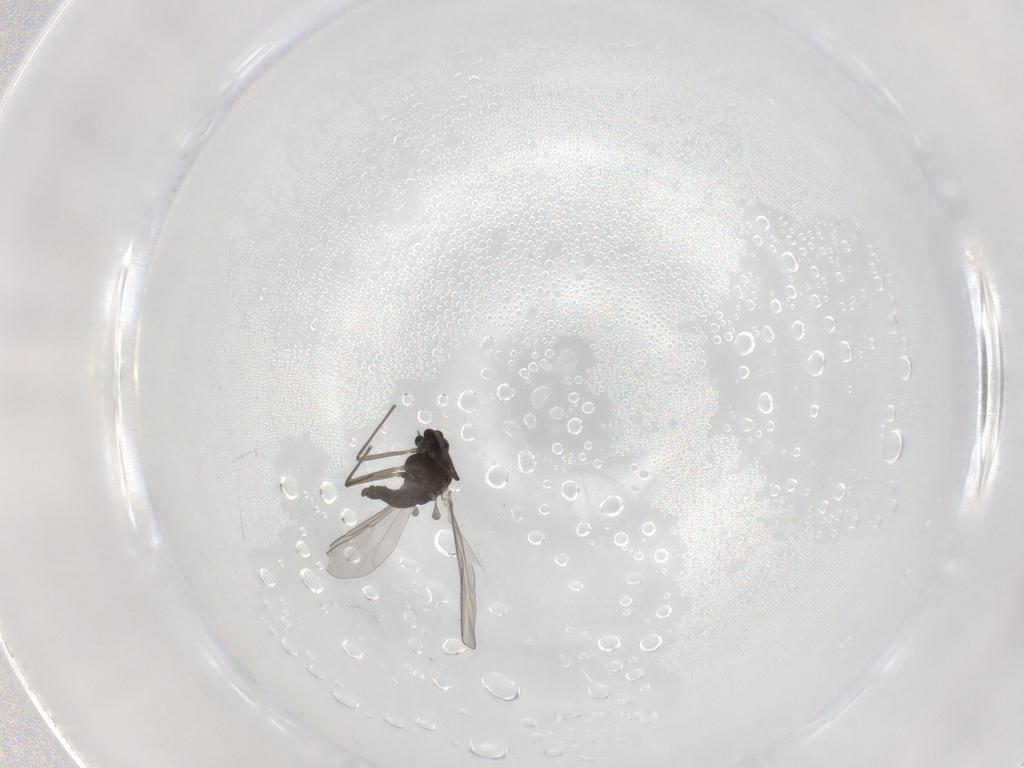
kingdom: Animalia
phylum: Arthropoda
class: Insecta
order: Diptera
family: Chironomidae
